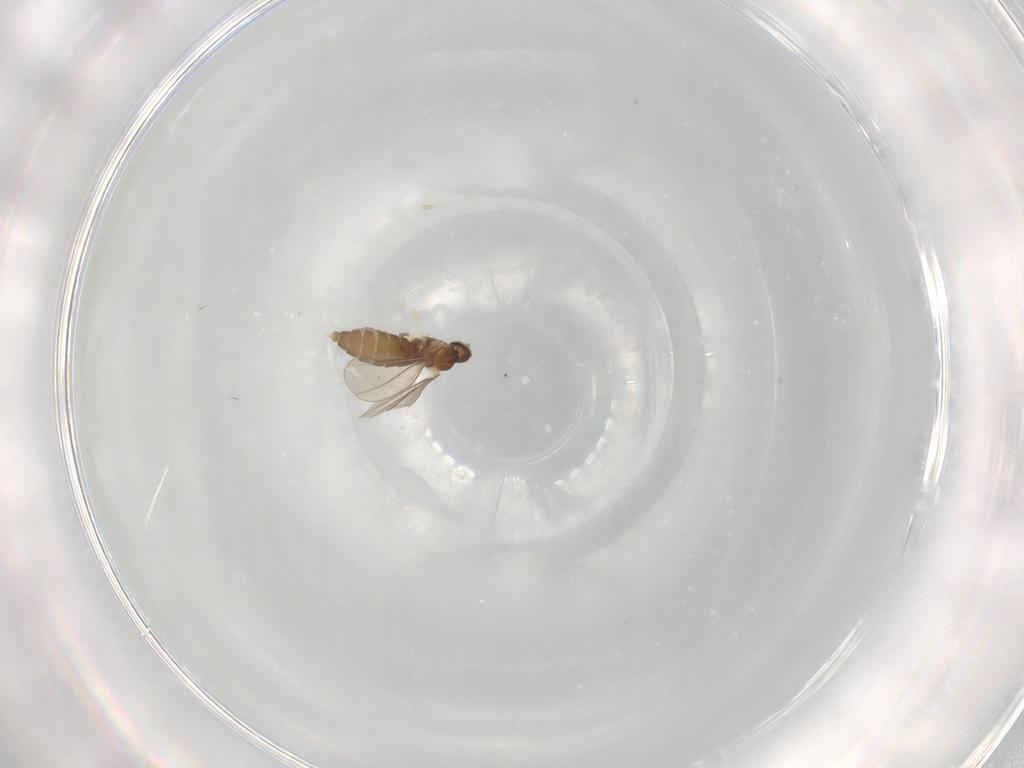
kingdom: Animalia
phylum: Arthropoda
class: Insecta
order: Diptera
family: Cecidomyiidae
